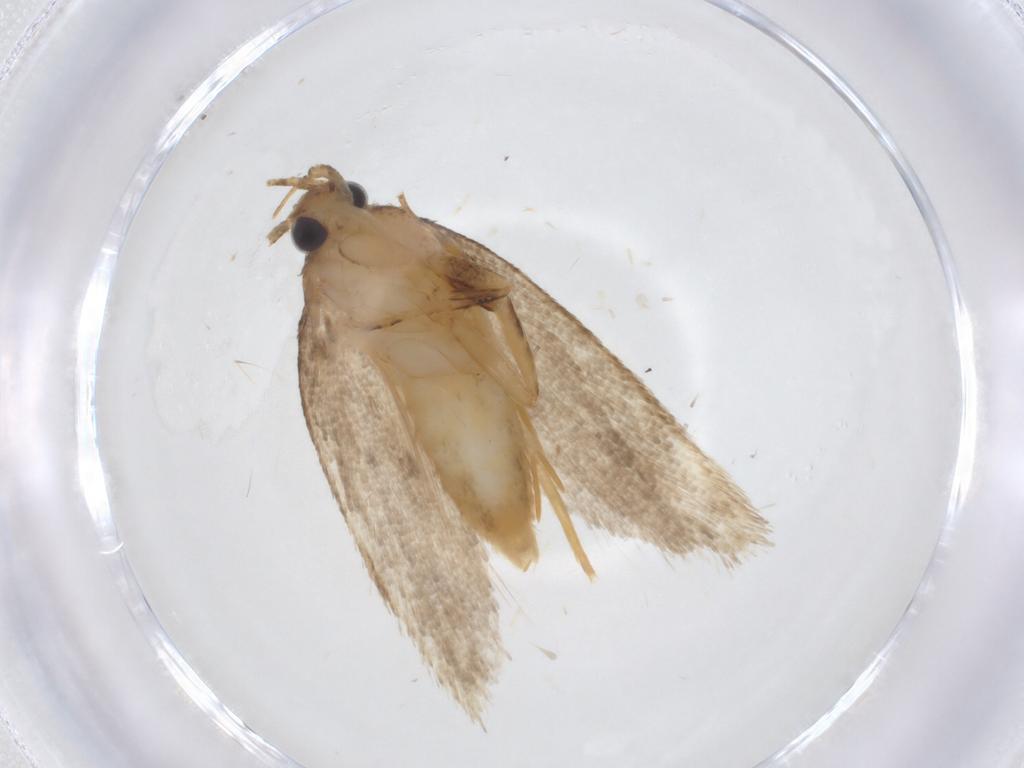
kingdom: Animalia
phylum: Arthropoda
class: Insecta
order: Lepidoptera
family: Oecophoridae
